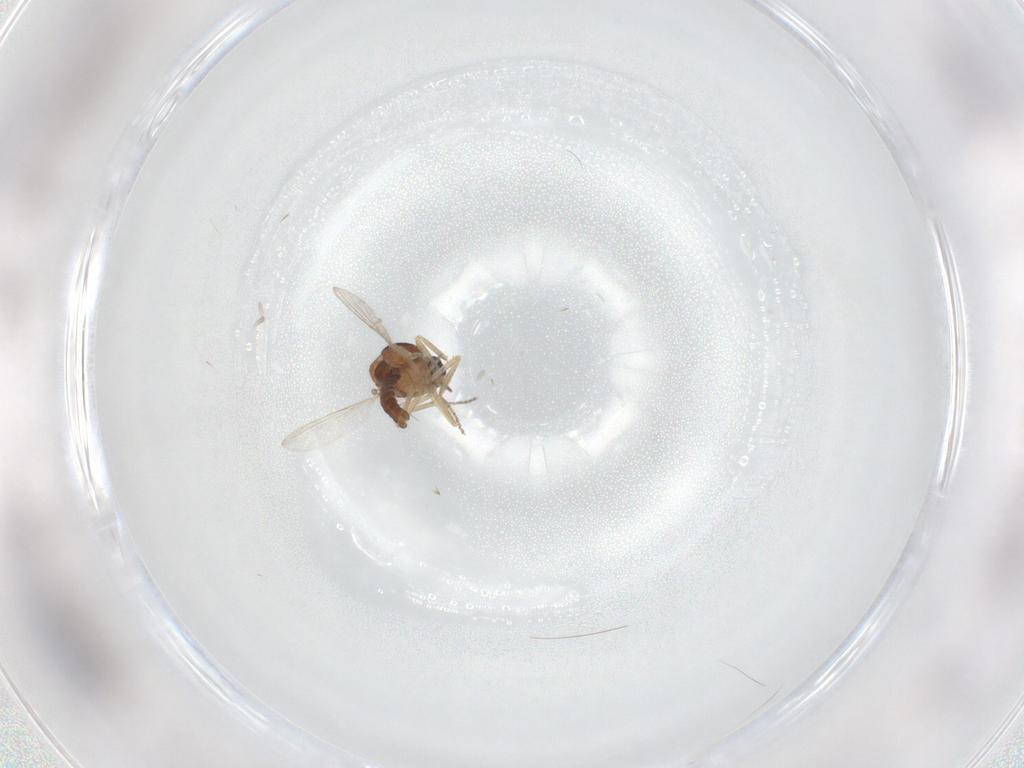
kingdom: Animalia
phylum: Arthropoda
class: Insecta
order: Diptera
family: Ceratopogonidae
